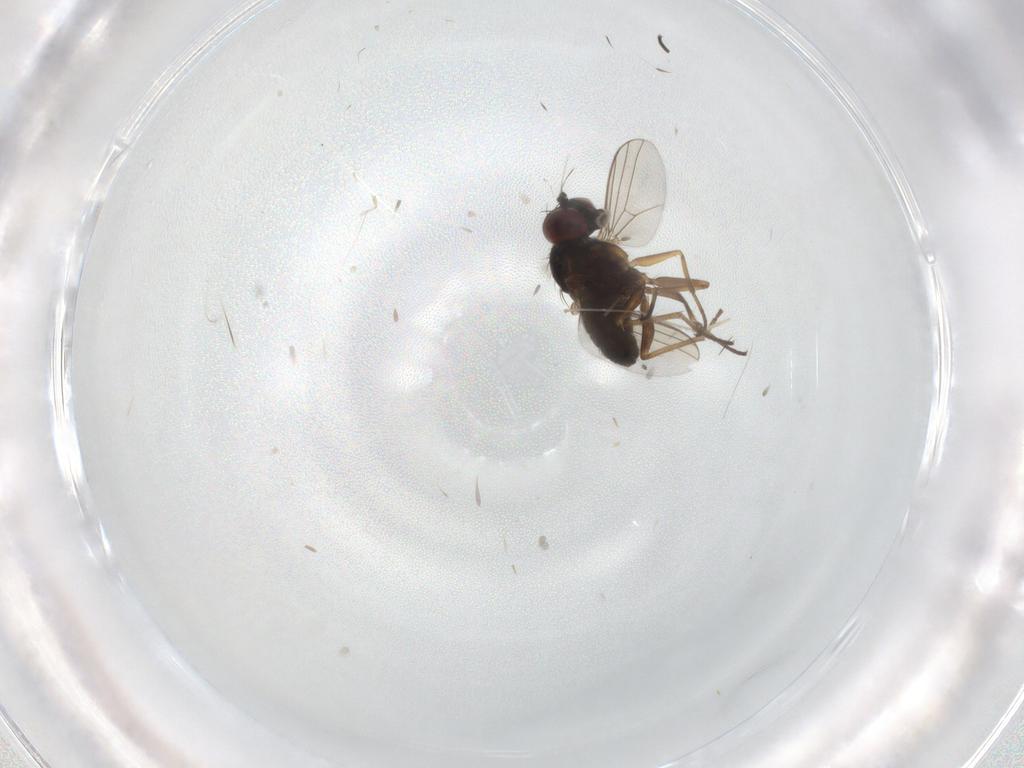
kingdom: Animalia
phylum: Arthropoda
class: Insecta
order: Diptera
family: Dolichopodidae
